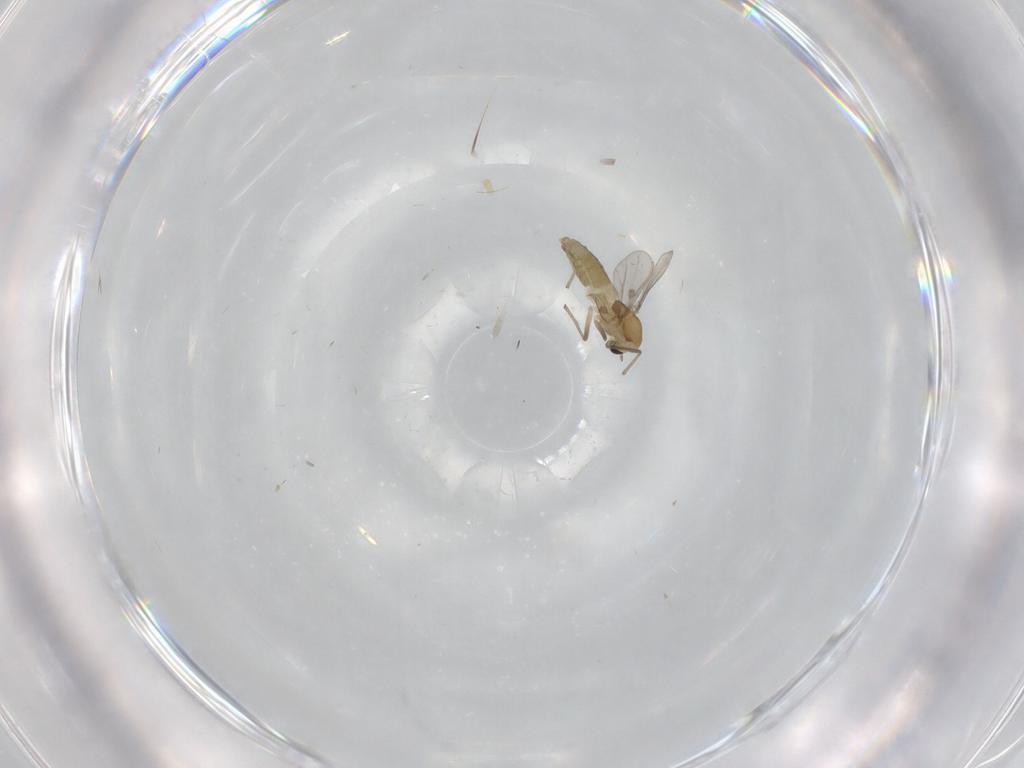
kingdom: Animalia
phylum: Arthropoda
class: Insecta
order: Diptera
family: Chironomidae
